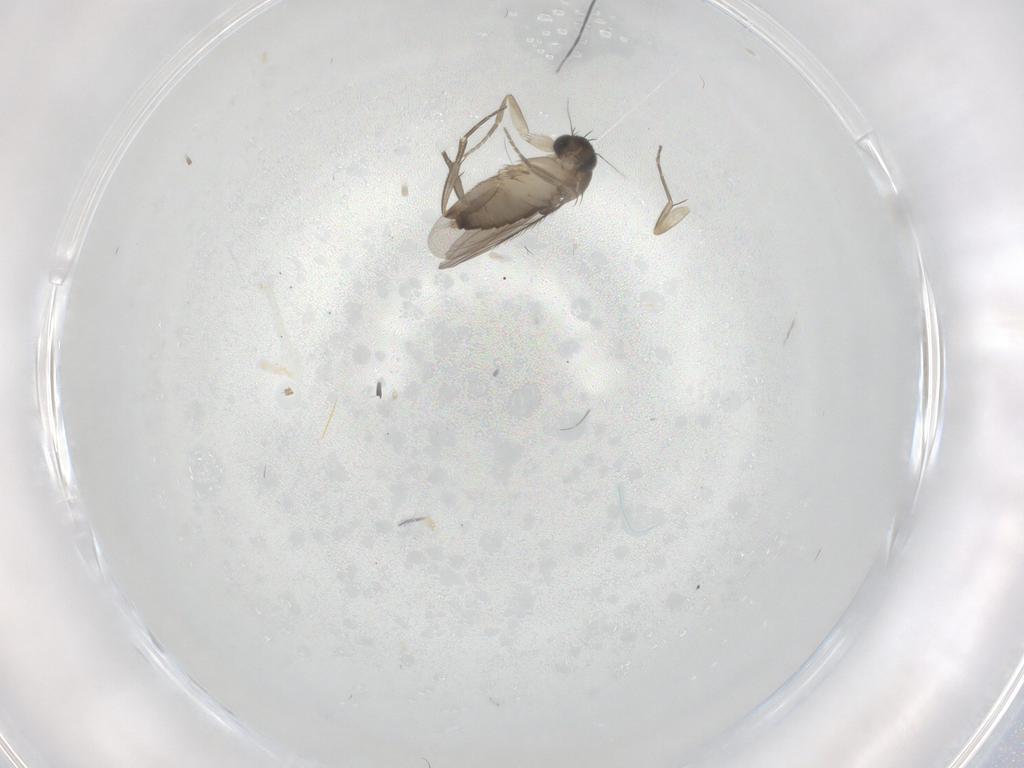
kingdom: Animalia
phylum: Arthropoda
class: Insecta
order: Diptera
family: Phoridae
